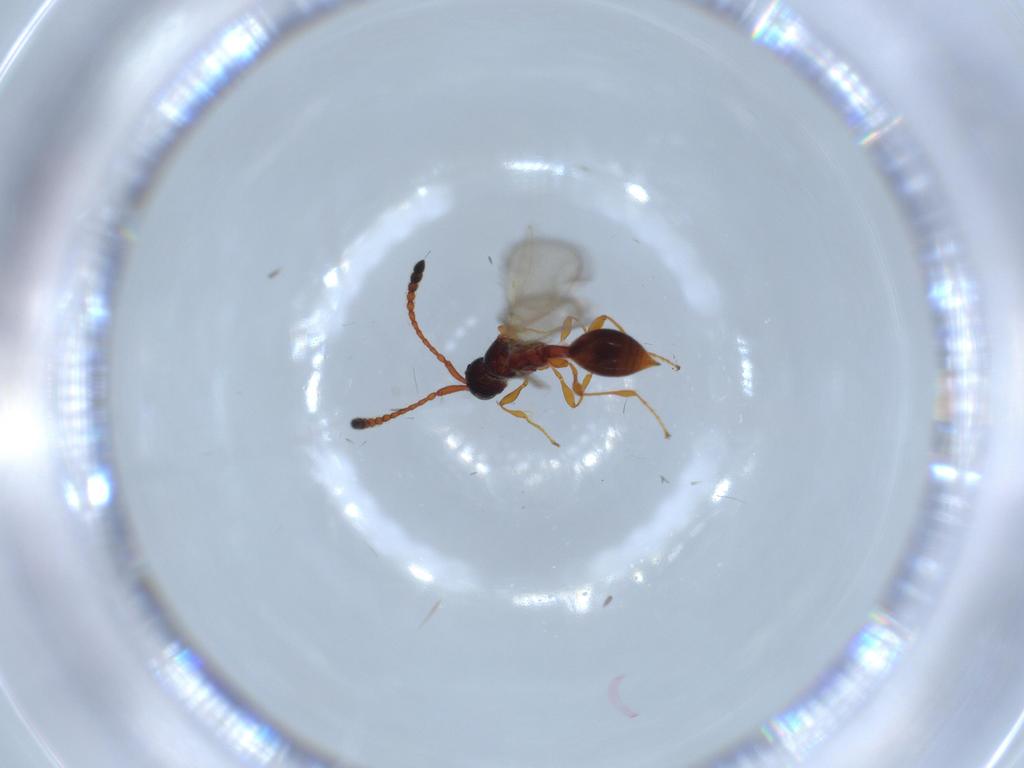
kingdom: Animalia
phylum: Arthropoda
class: Insecta
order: Hymenoptera
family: Diapriidae
